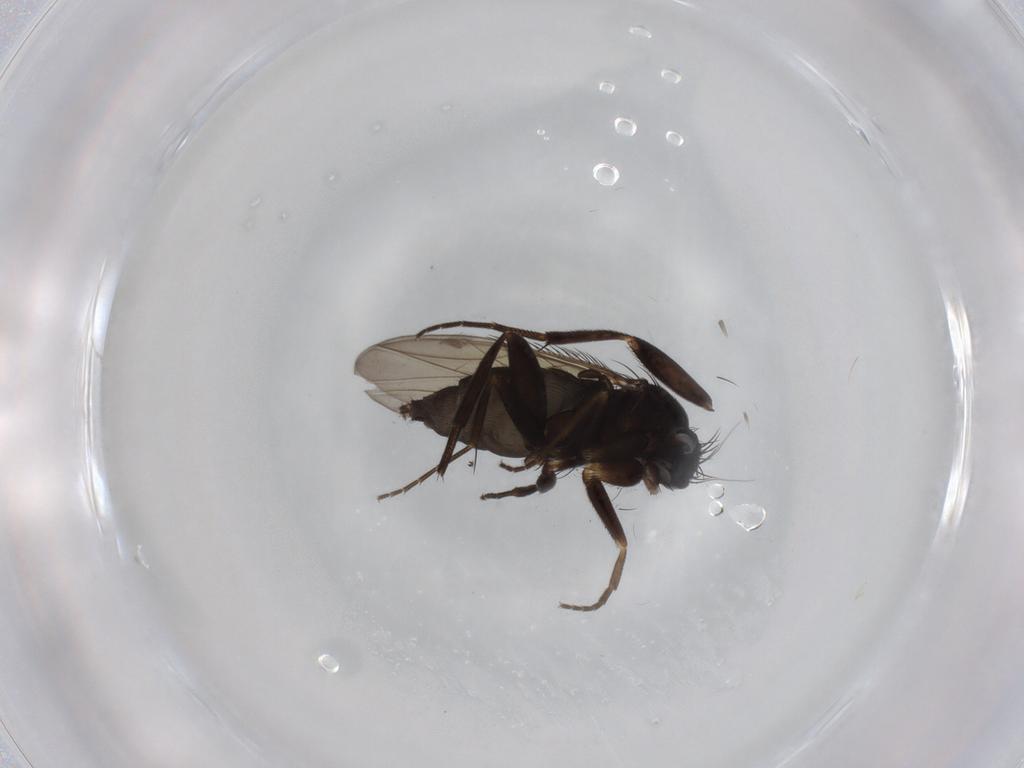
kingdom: Animalia
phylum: Arthropoda
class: Insecta
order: Diptera
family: Phoridae
